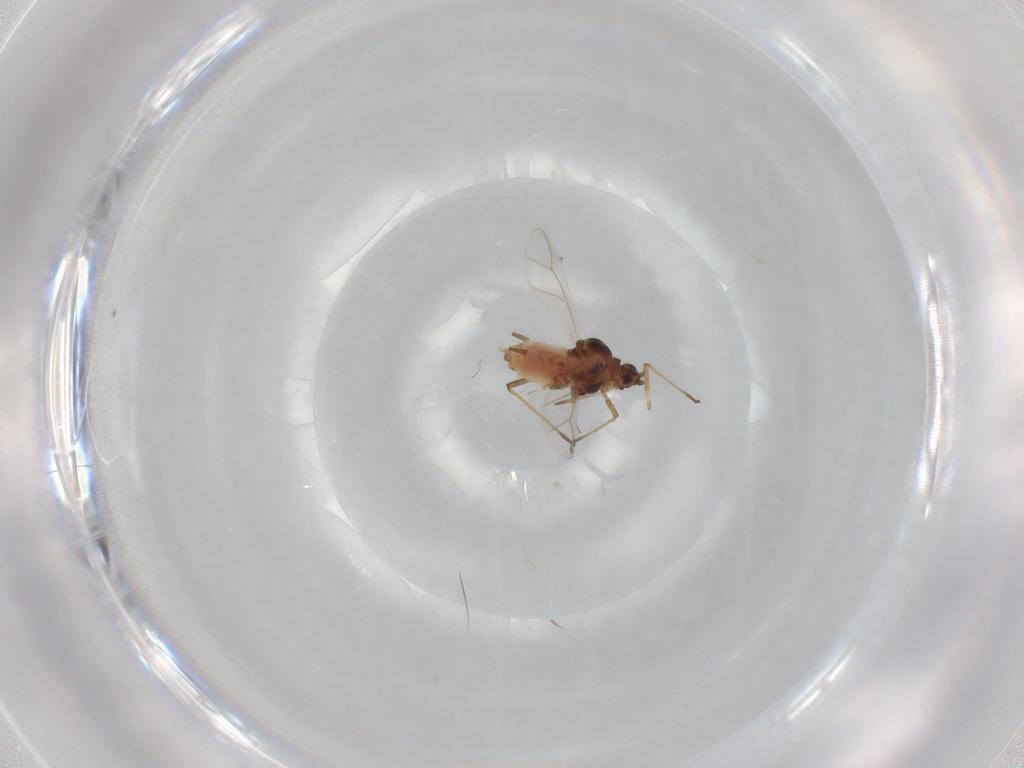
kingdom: Animalia
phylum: Arthropoda
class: Insecta
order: Hemiptera
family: Aphididae
